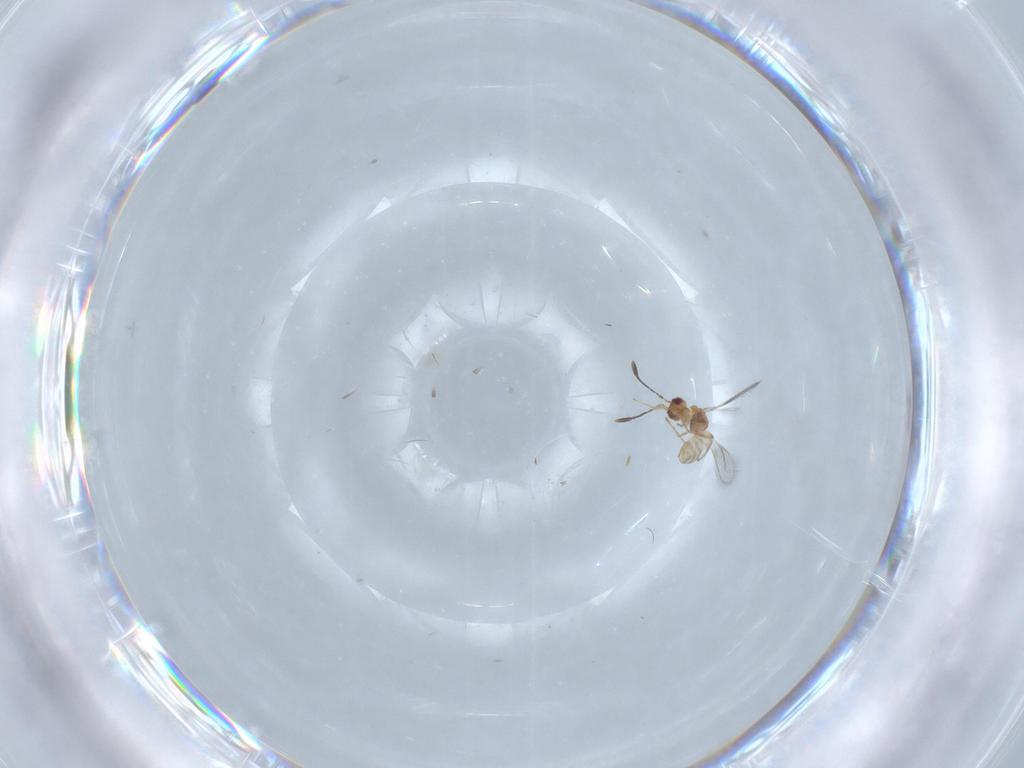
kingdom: Animalia
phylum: Arthropoda
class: Insecta
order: Hymenoptera
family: Mymaridae
